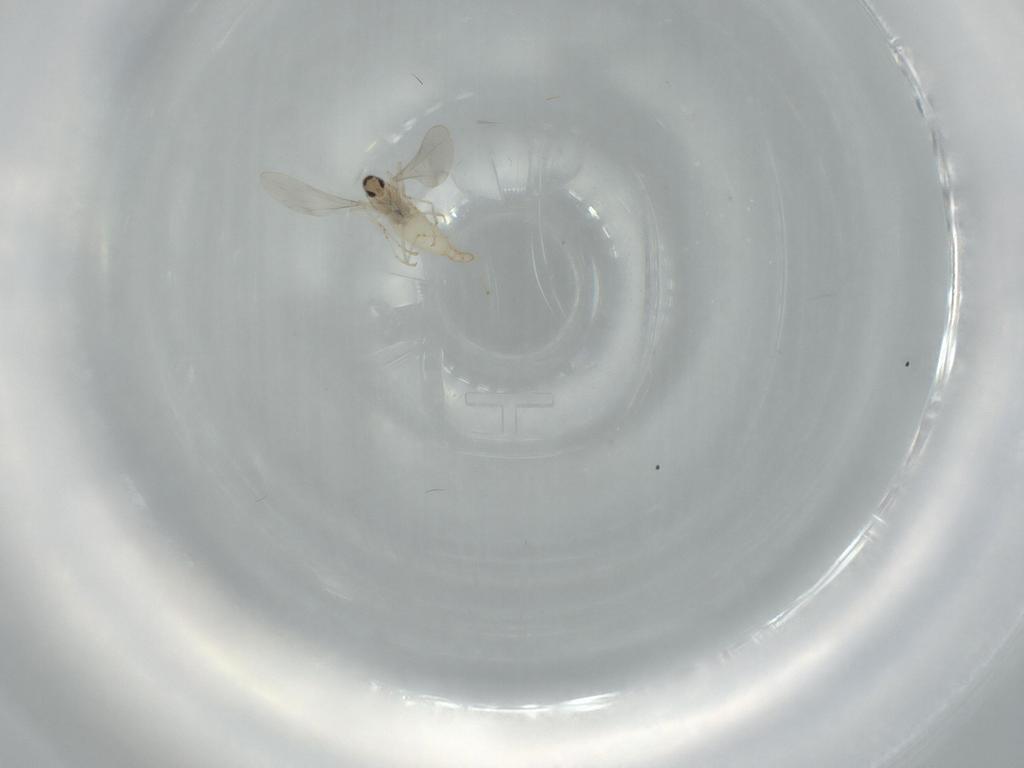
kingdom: Animalia
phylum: Arthropoda
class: Insecta
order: Diptera
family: Cecidomyiidae
